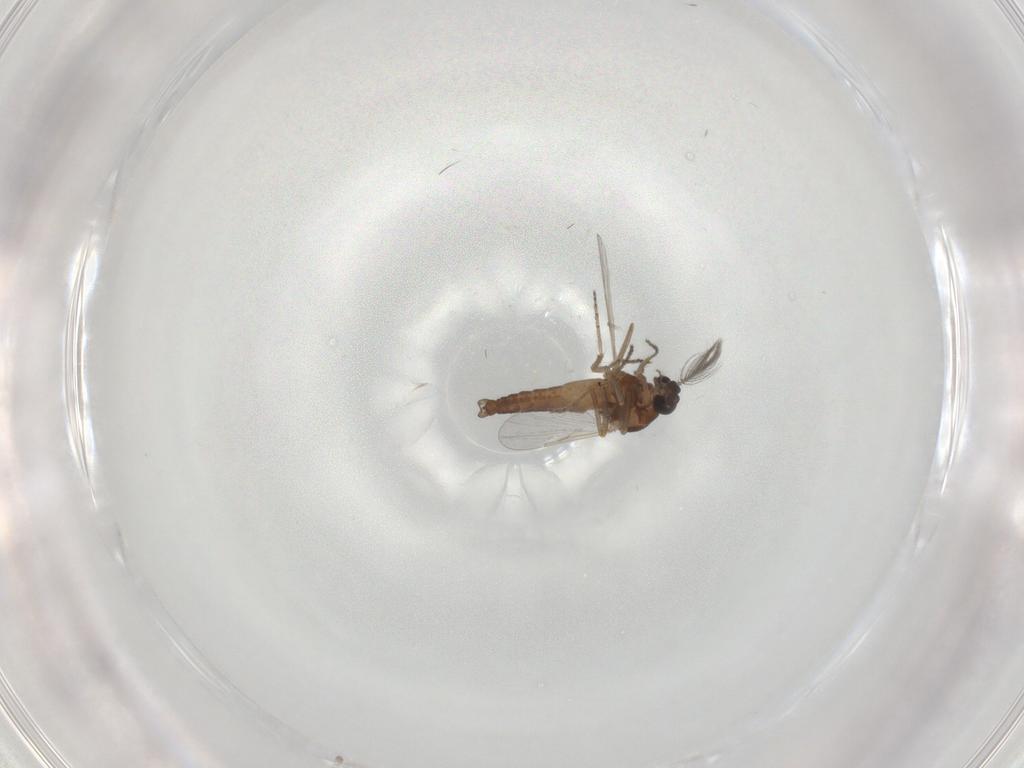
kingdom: Animalia
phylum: Arthropoda
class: Insecta
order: Diptera
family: Ceratopogonidae
